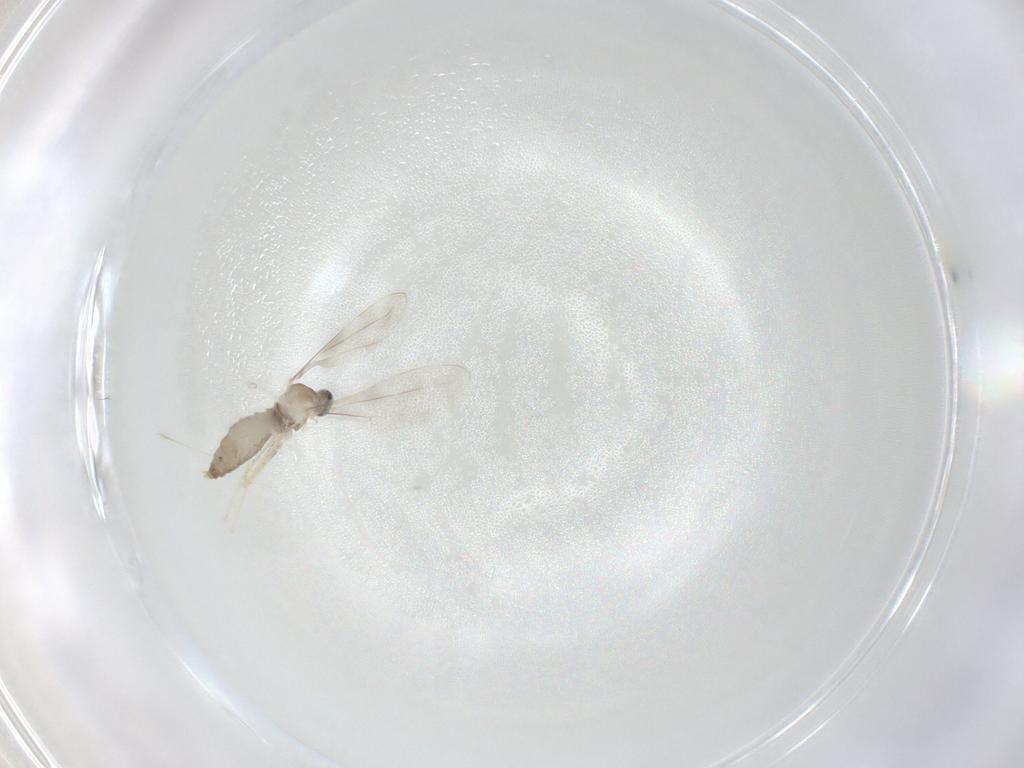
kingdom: Animalia
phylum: Arthropoda
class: Insecta
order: Diptera
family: Cecidomyiidae
